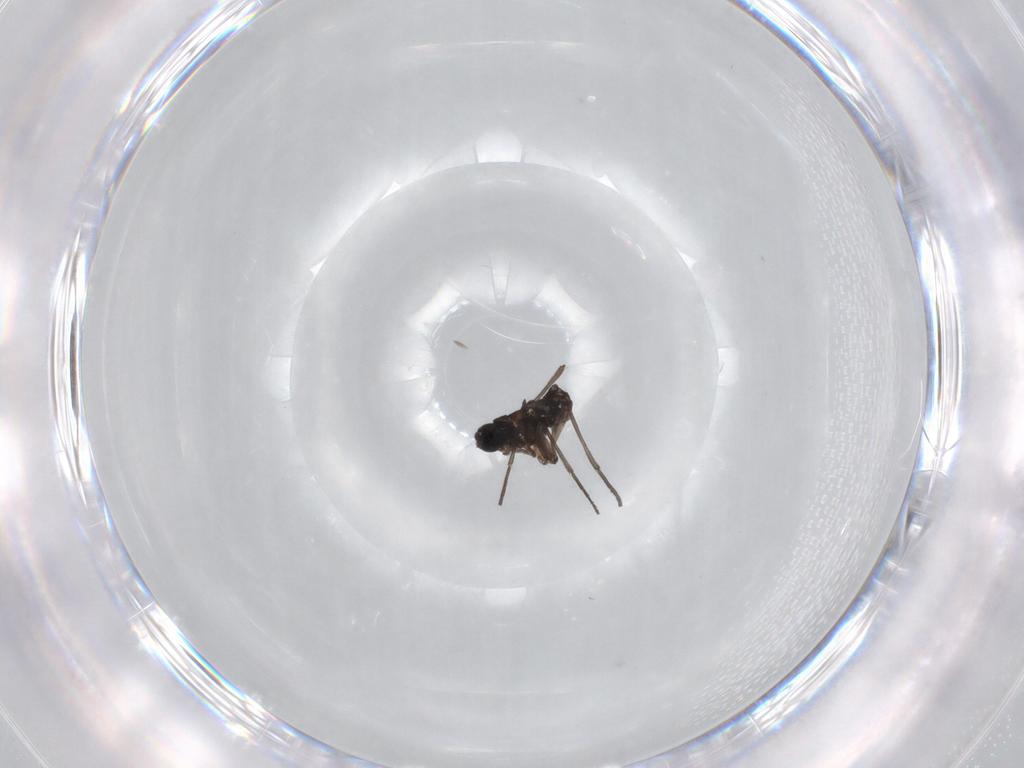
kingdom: Animalia
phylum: Arthropoda
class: Insecta
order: Diptera
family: Sciaridae
